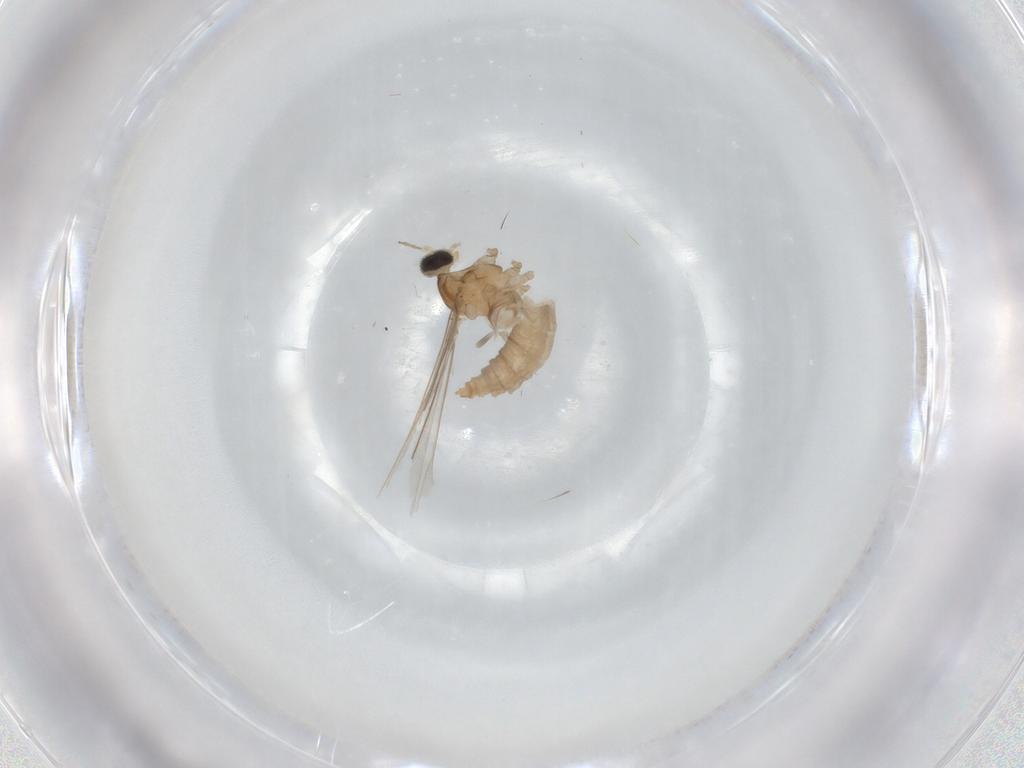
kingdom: Animalia
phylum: Arthropoda
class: Insecta
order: Diptera
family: Cecidomyiidae
